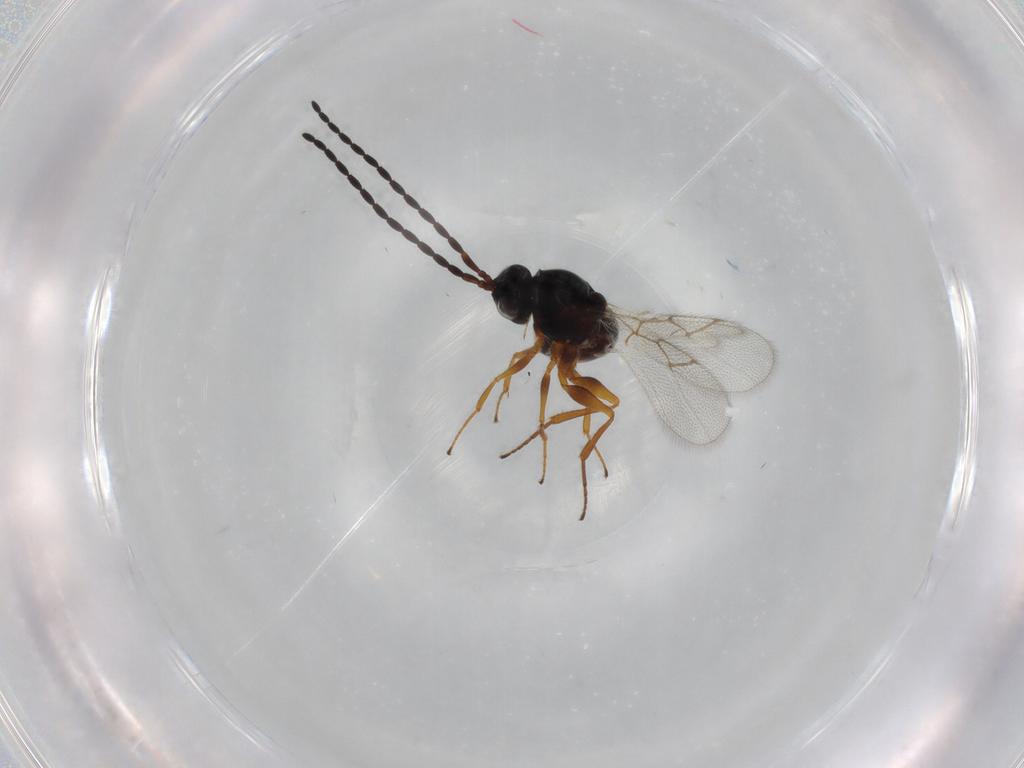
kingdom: Animalia
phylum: Arthropoda
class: Insecta
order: Hymenoptera
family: Figitidae
